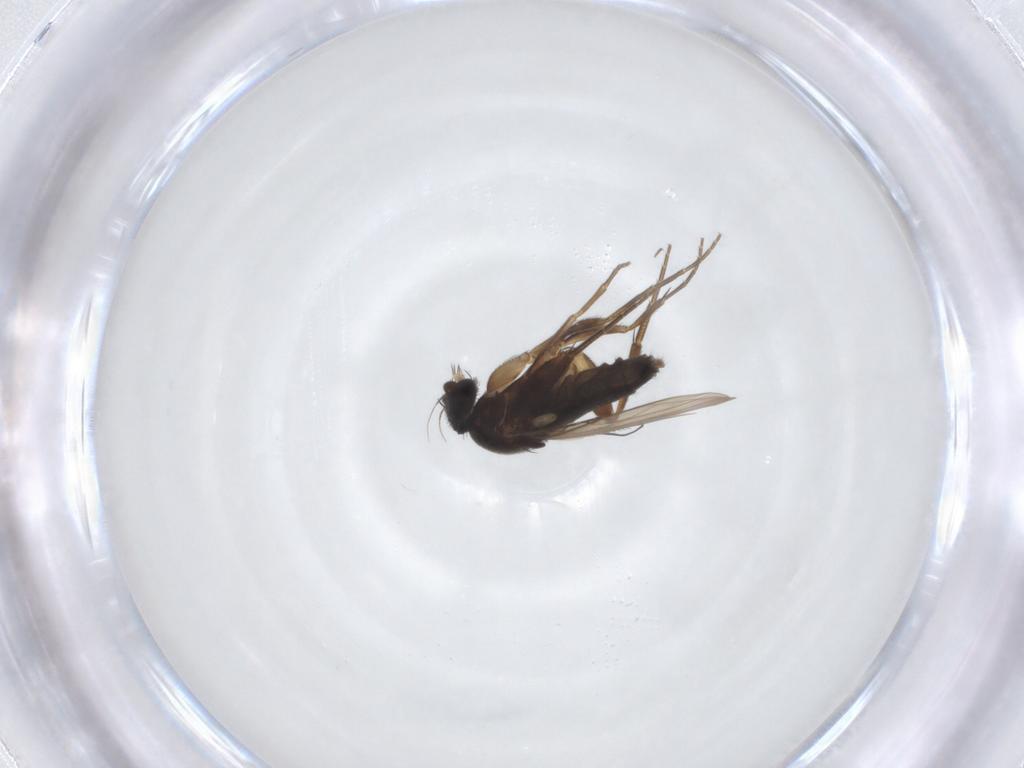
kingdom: Animalia
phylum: Arthropoda
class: Insecta
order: Diptera
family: Phoridae
